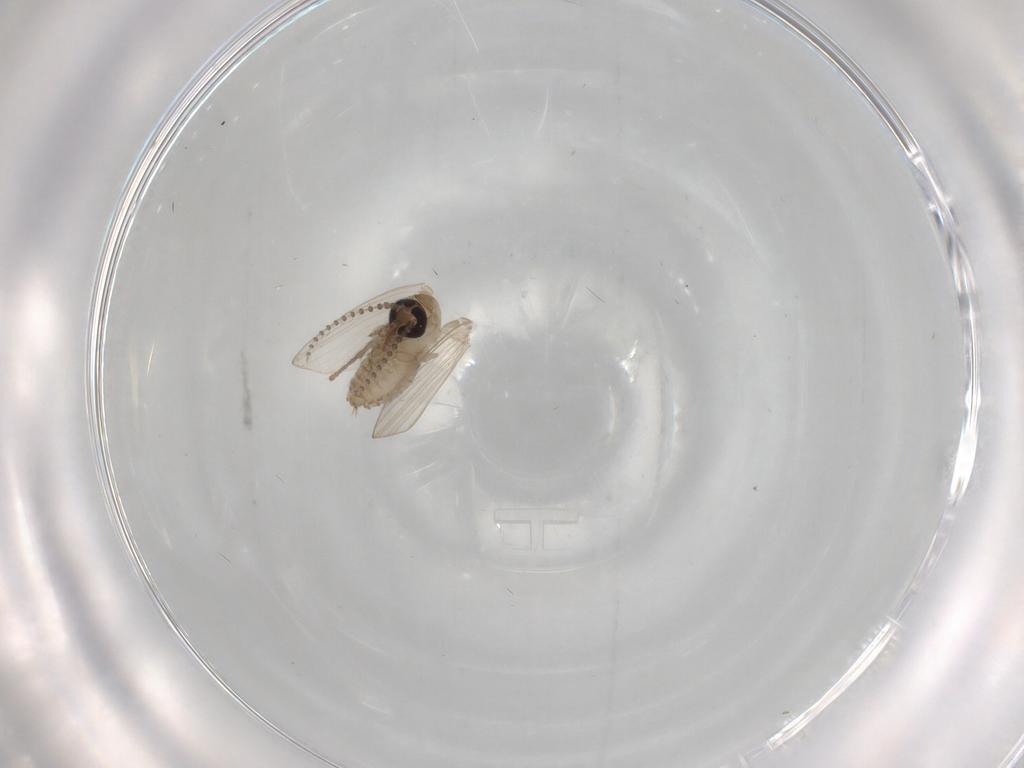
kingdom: Animalia
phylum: Arthropoda
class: Insecta
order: Diptera
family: Psychodidae
